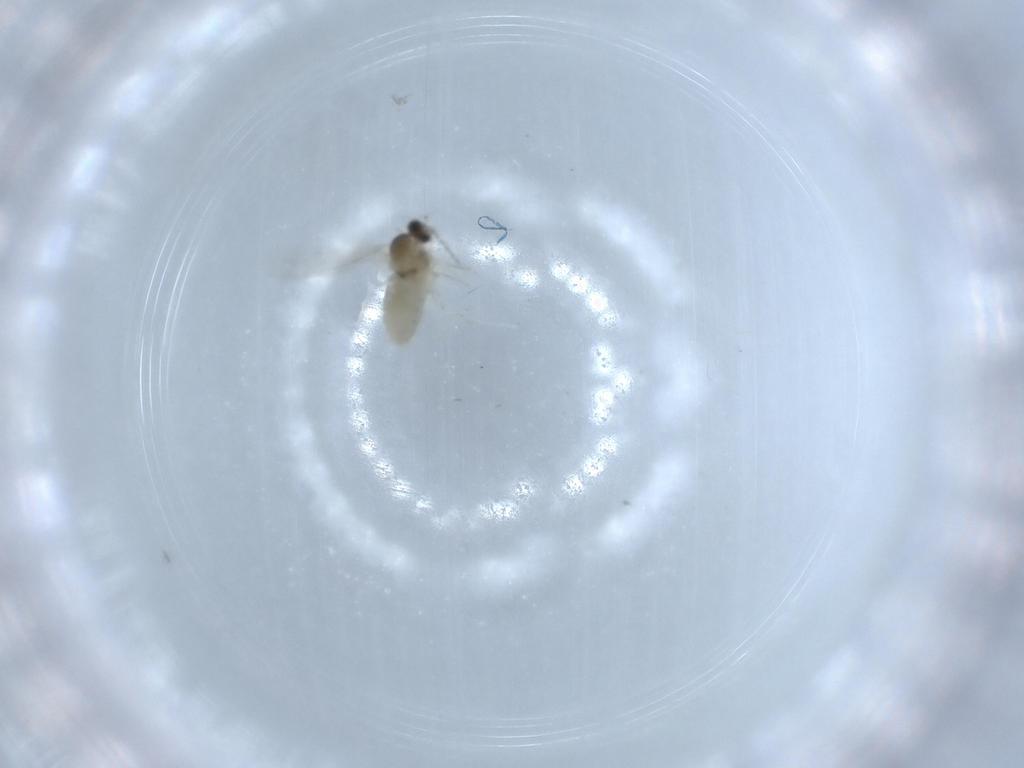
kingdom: Animalia
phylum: Arthropoda
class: Insecta
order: Diptera
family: Cecidomyiidae
